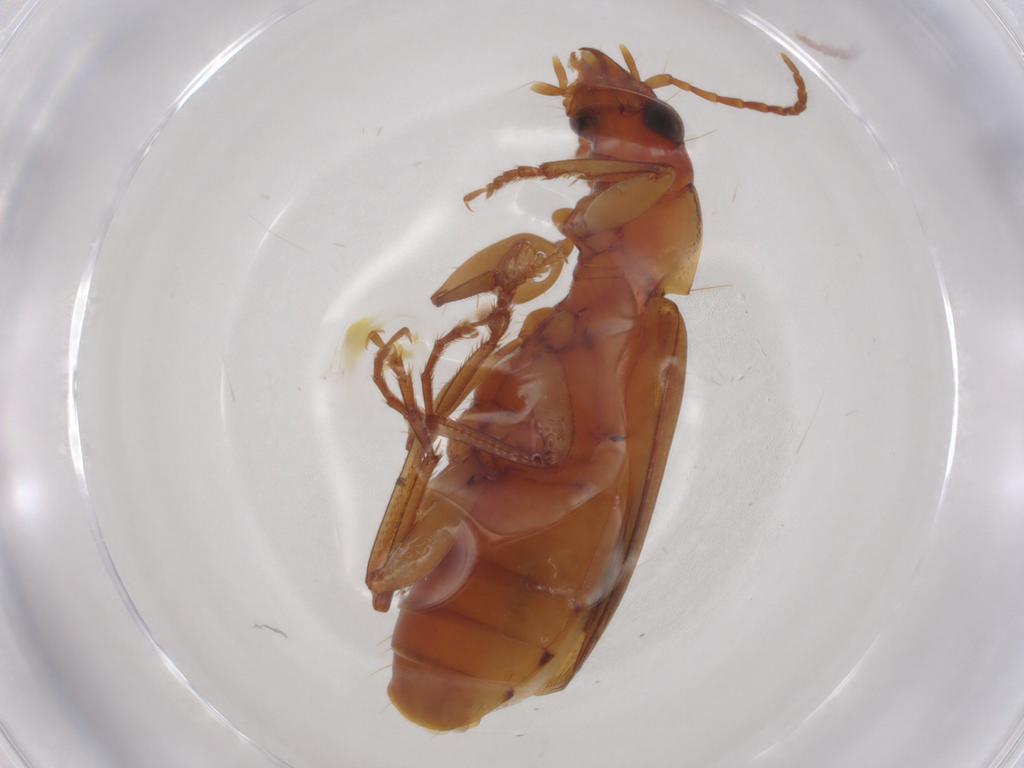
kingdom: Animalia
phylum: Arthropoda
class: Insecta
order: Coleoptera
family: Carabidae
